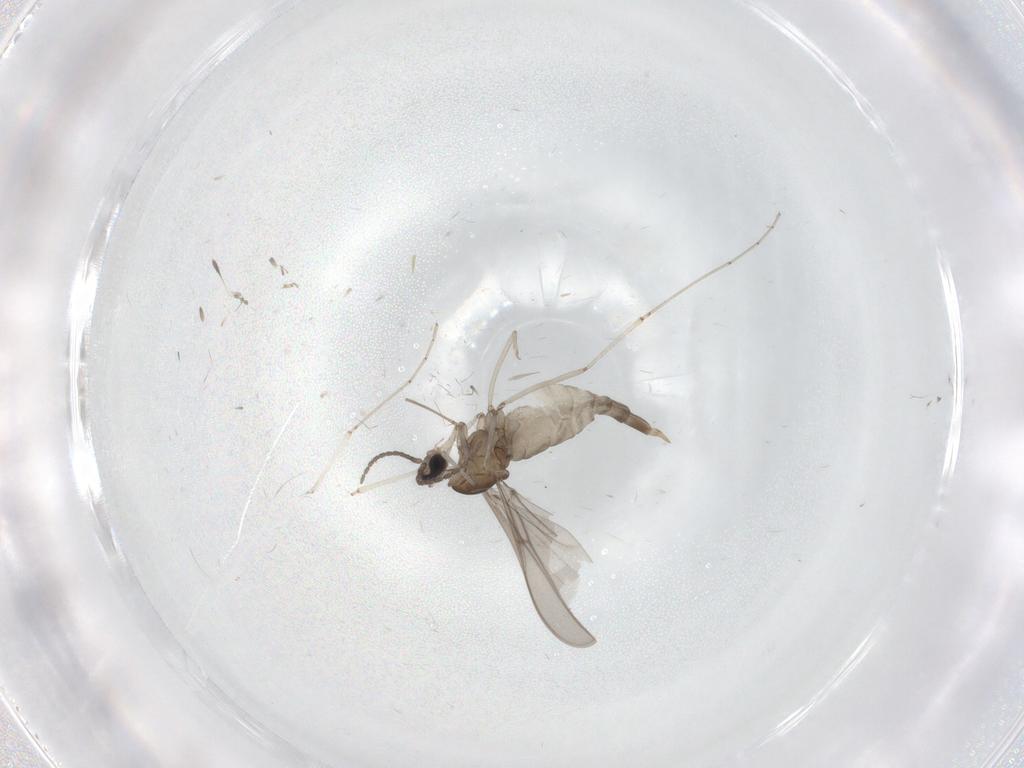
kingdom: Animalia
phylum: Arthropoda
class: Insecta
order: Diptera
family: Cecidomyiidae
